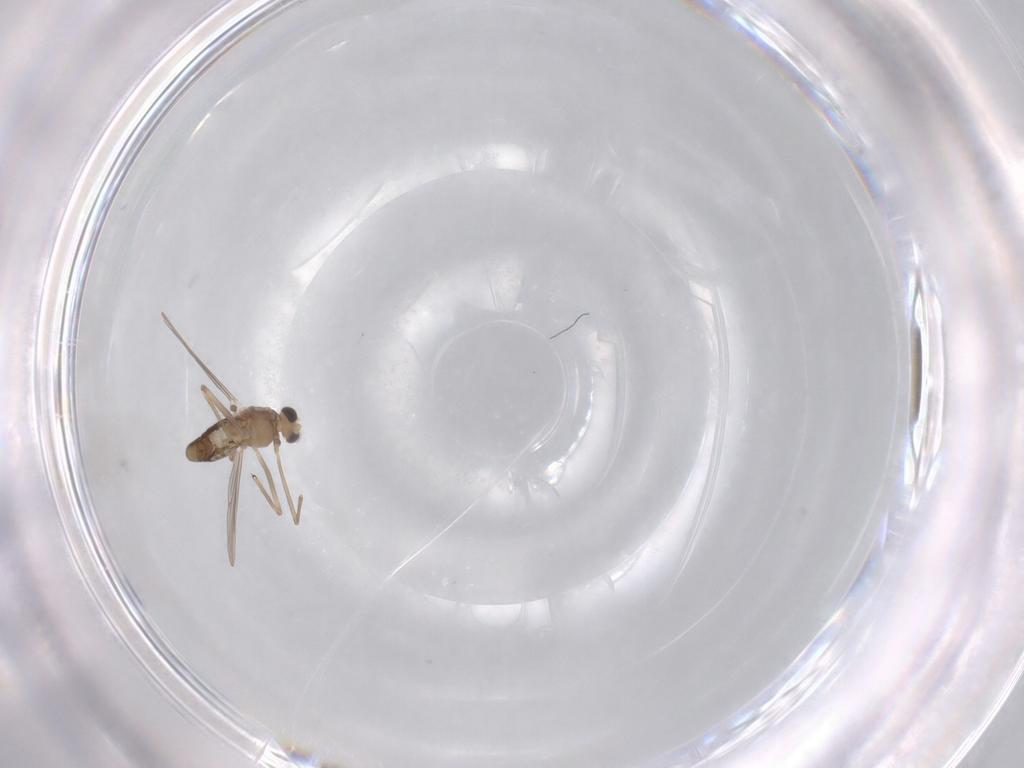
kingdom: Animalia
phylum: Arthropoda
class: Insecta
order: Diptera
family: Chironomidae
